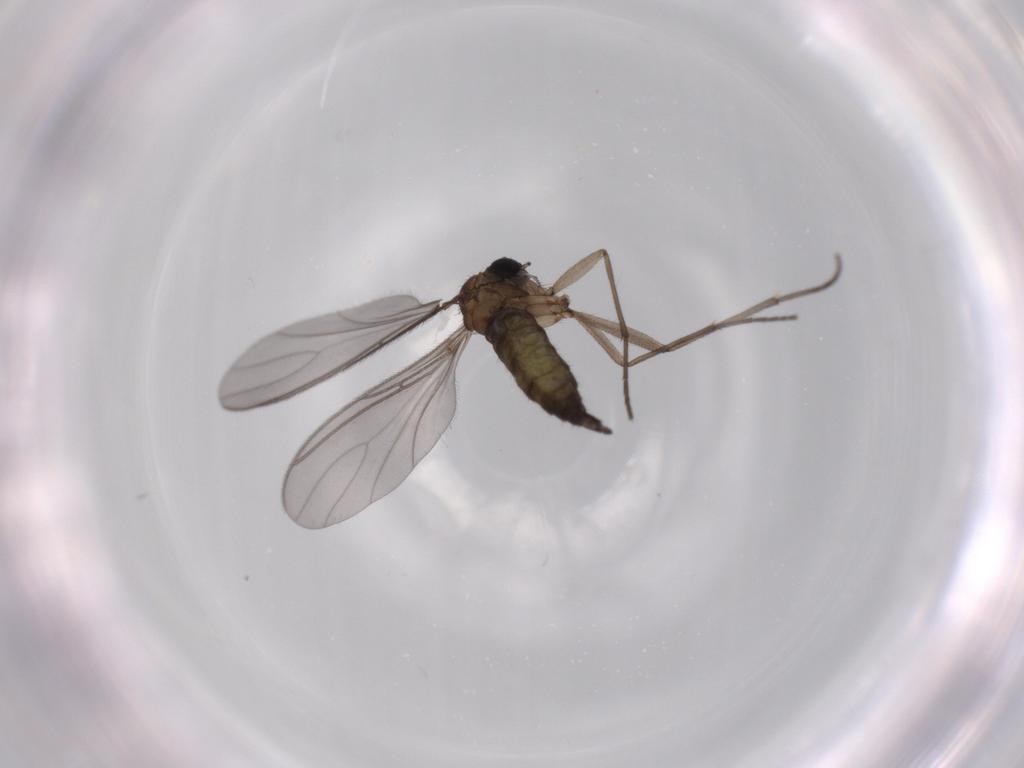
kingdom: Animalia
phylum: Arthropoda
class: Insecta
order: Diptera
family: Sciaridae
